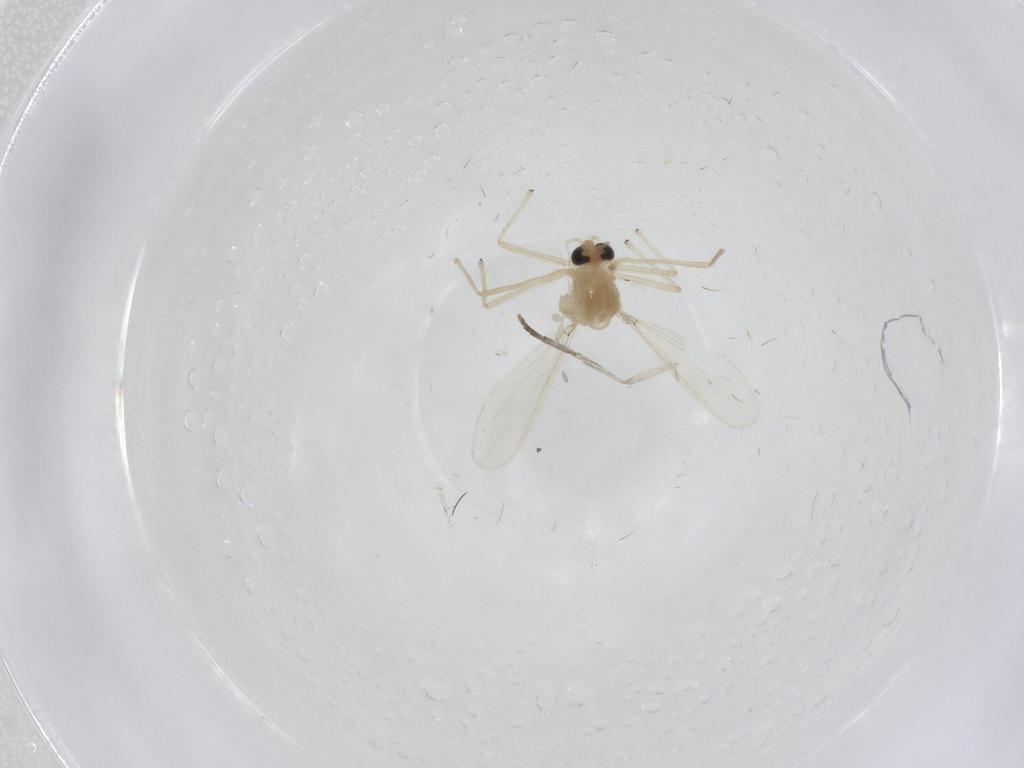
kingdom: Animalia
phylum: Arthropoda
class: Insecta
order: Diptera
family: Chironomidae
